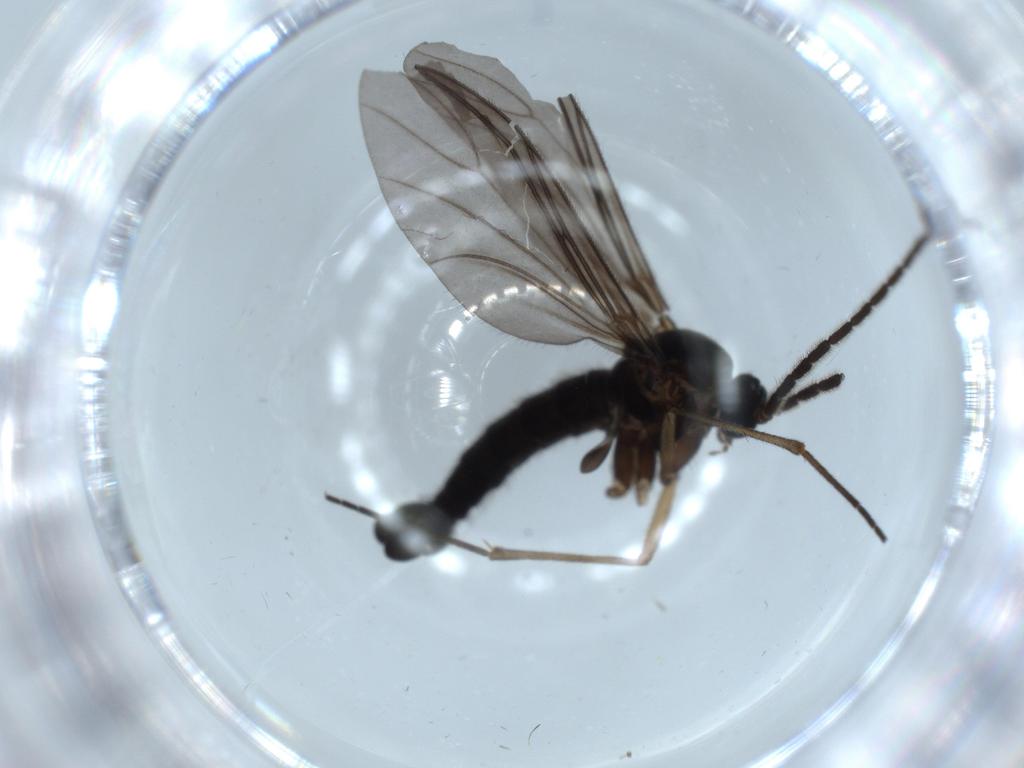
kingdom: Animalia
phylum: Arthropoda
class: Insecta
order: Diptera
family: Sciaridae
